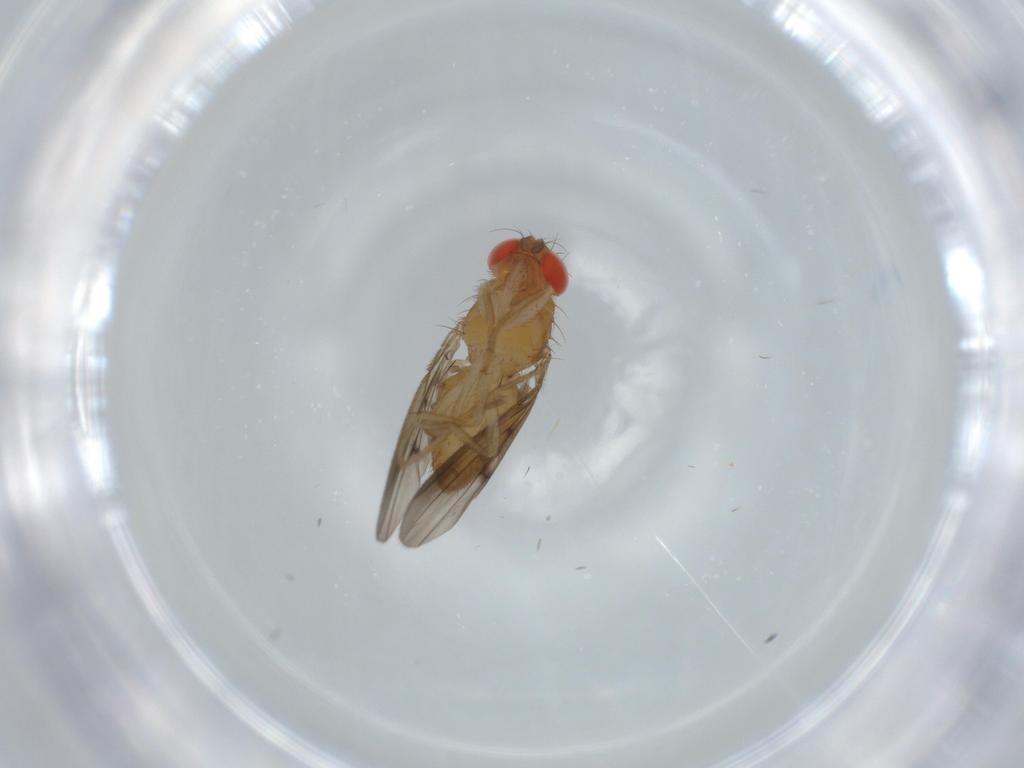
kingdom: Animalia
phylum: Arthropoda
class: Insecta
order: Diptera
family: Drosophilidae
